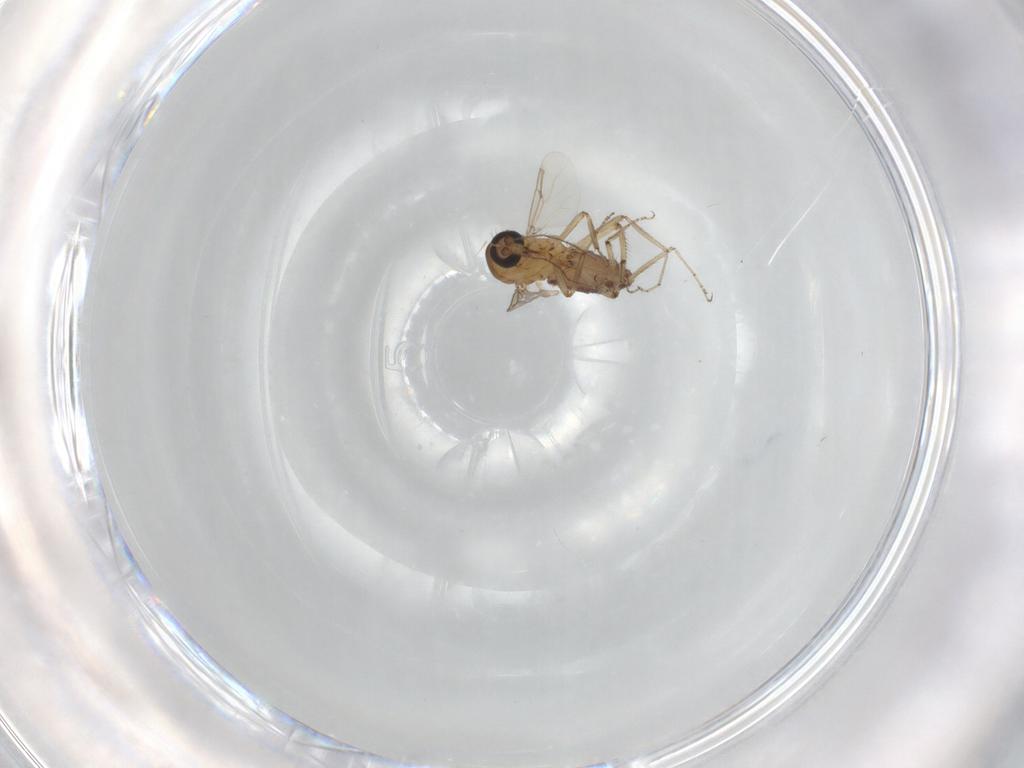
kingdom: Animalia
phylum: Arthropoda
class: Insecta
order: Diptera
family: Ceratopogonidae
